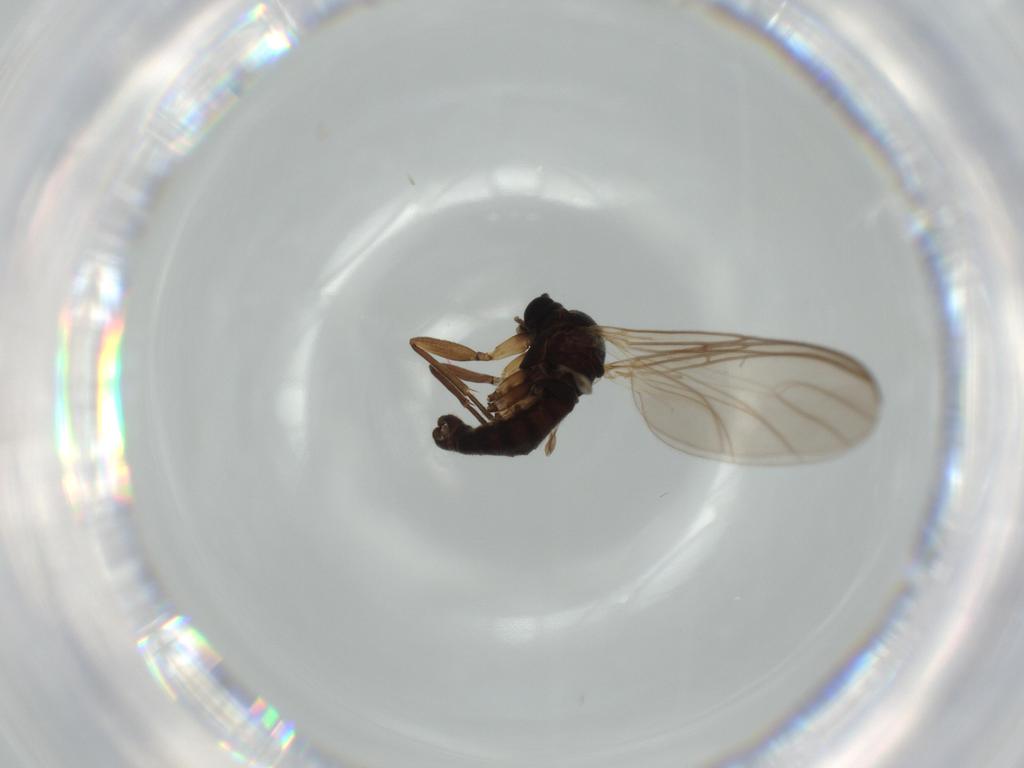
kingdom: Animalia
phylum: Arthropoda
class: Insecta
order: Diptera
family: Sciaridae
